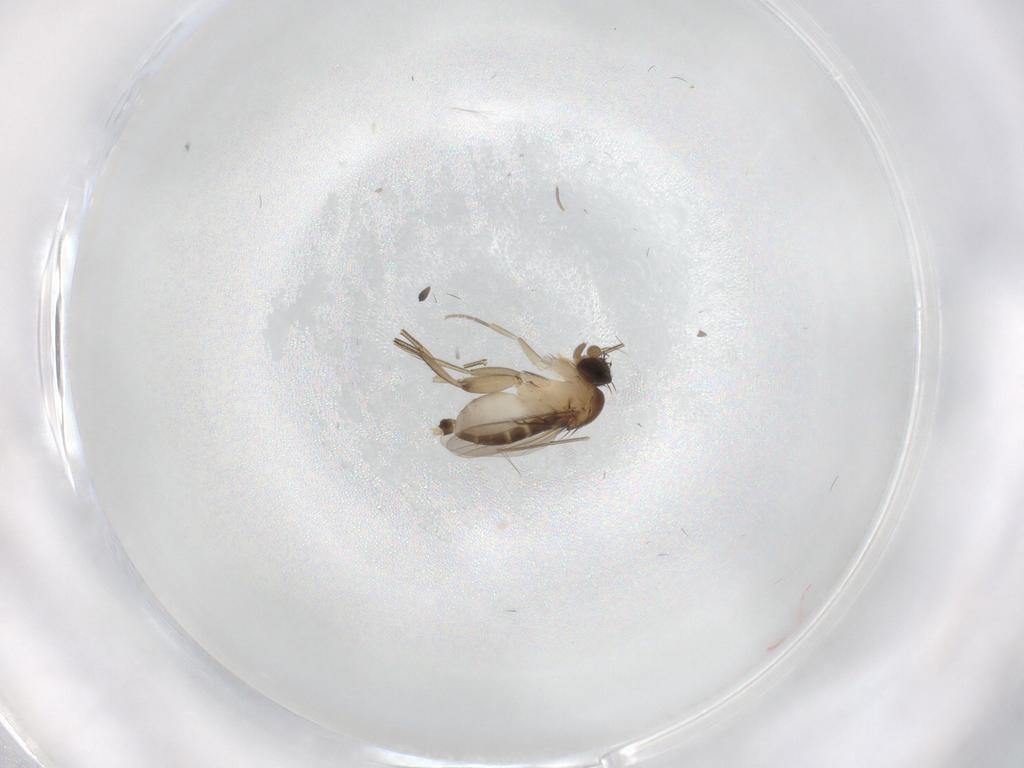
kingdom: Animalia
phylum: Arthropoda
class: Insecta
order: Diptera
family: Phoridae
